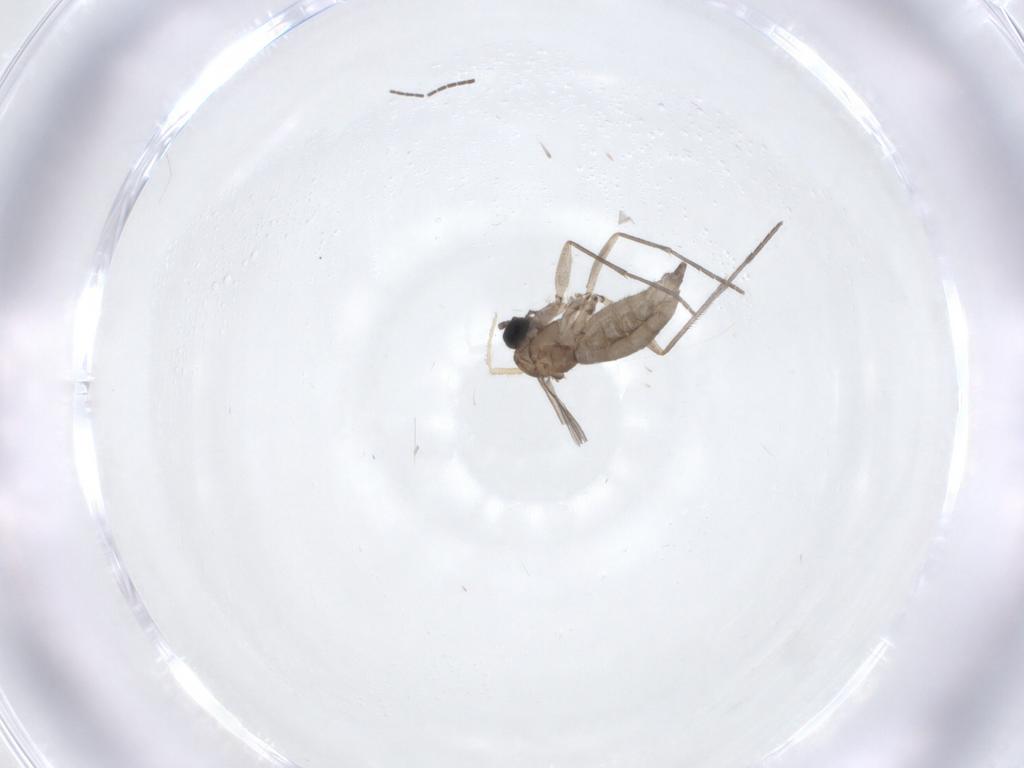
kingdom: Animalia
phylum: Arthropoda
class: Insecta
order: Diptera
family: Sciaridae
